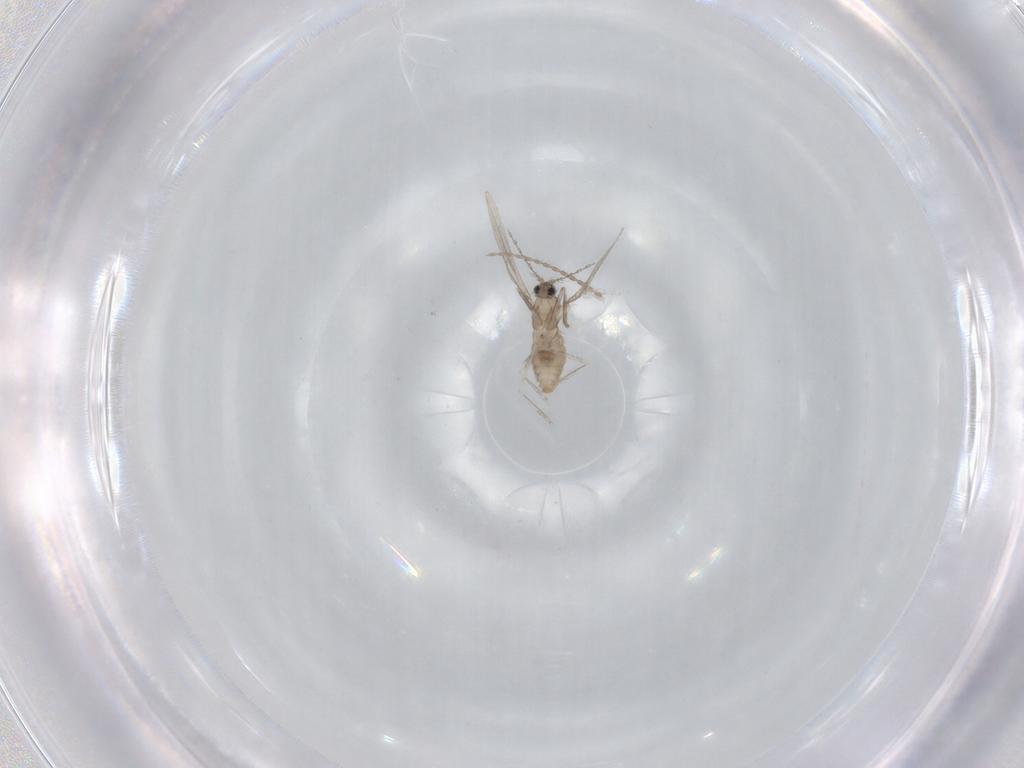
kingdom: Animalia
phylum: Arthropoda
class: Insecta
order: Diptera
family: Cecidomyiidae
